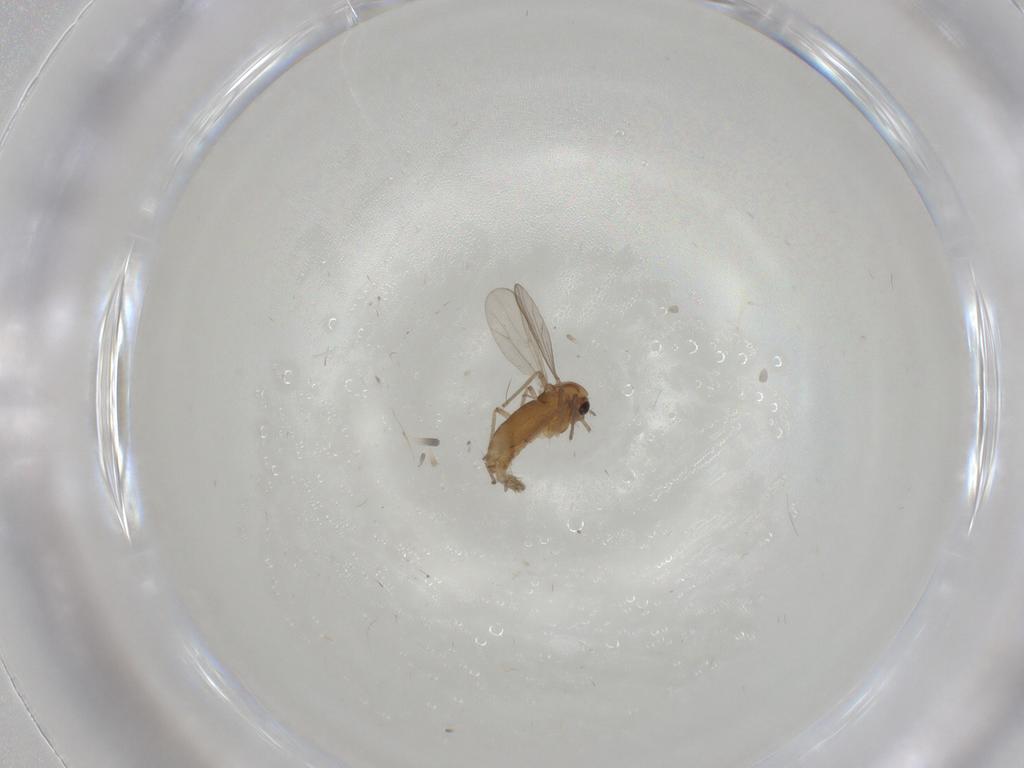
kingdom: Animalia
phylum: Arthropoda
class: Insecta
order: Diptera
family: Chironomidae
